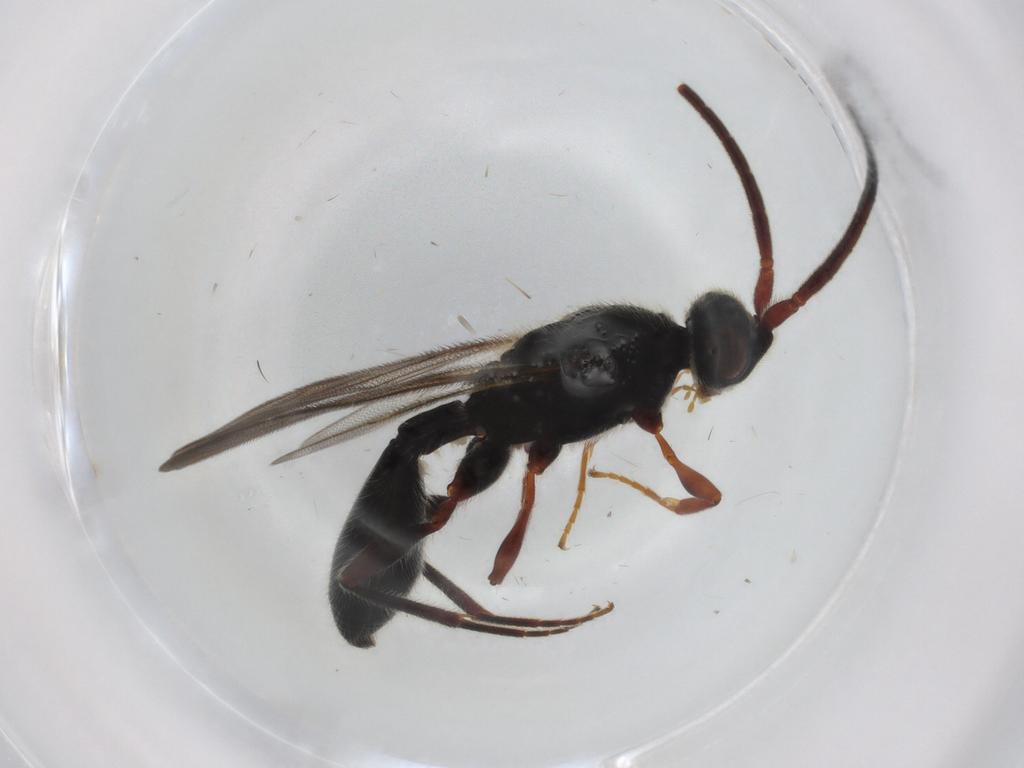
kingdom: Animalia
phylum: Arthropoda
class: Insecta
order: Hymenoptera
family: Diapriidae
